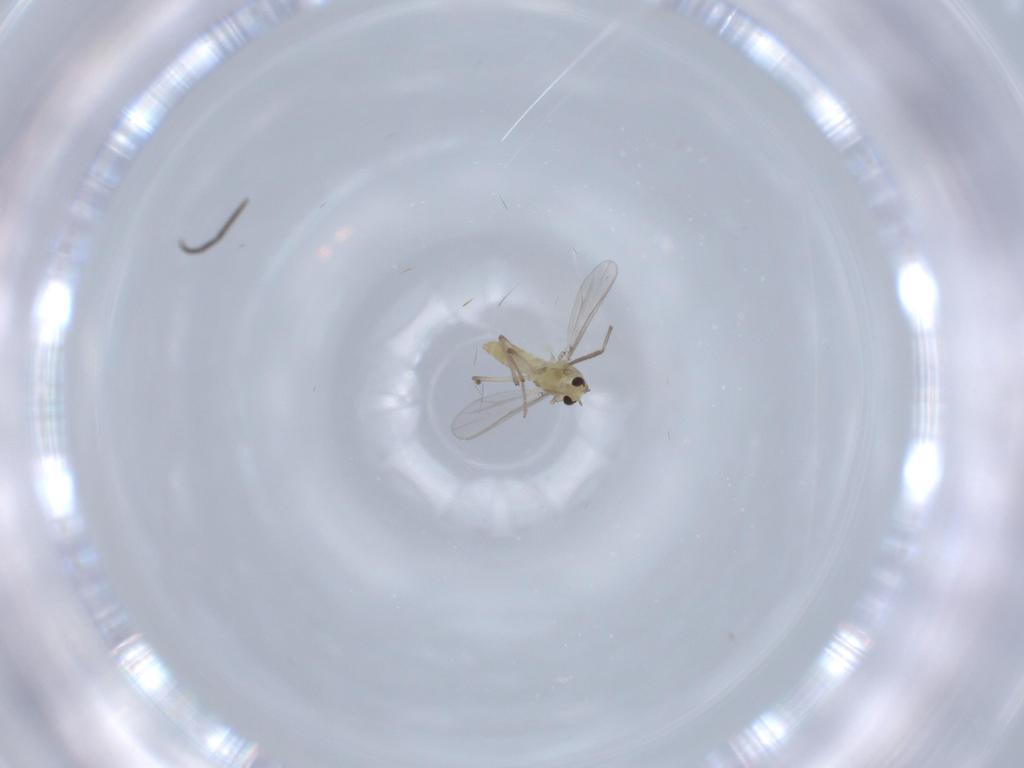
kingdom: Animalia
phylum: Arthropoda
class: Insecta
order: Diptera
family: Chironomidae
